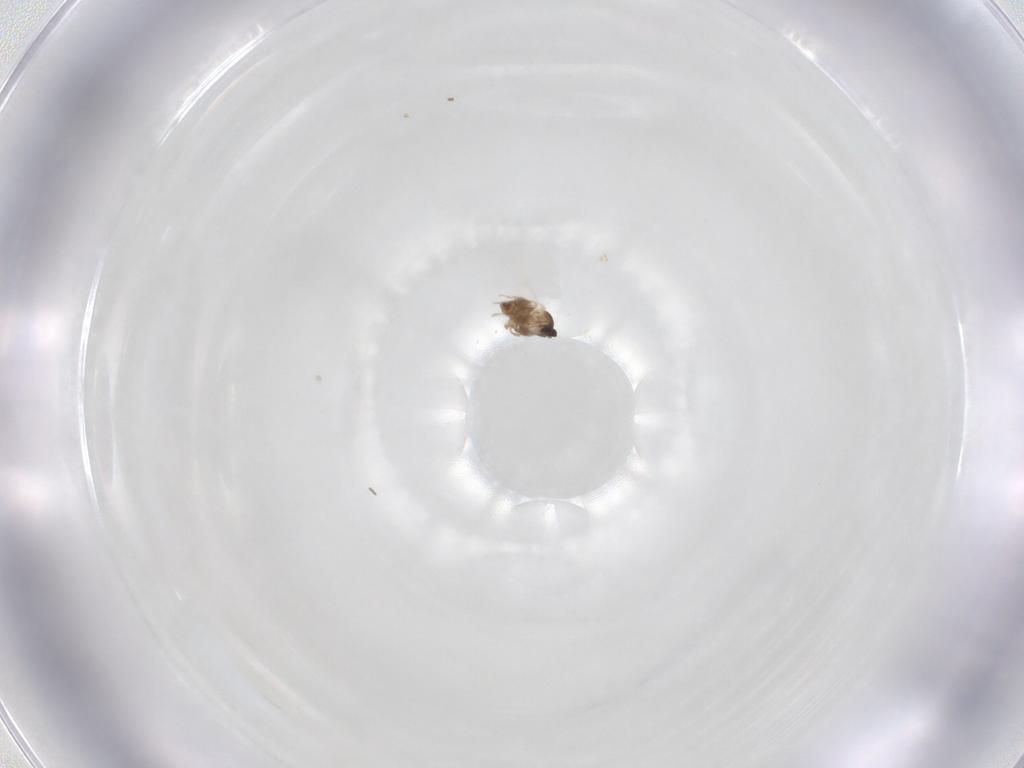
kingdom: Animalia
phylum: Arthropoda
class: Insecta
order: Diptera
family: Cecidomyiidae
